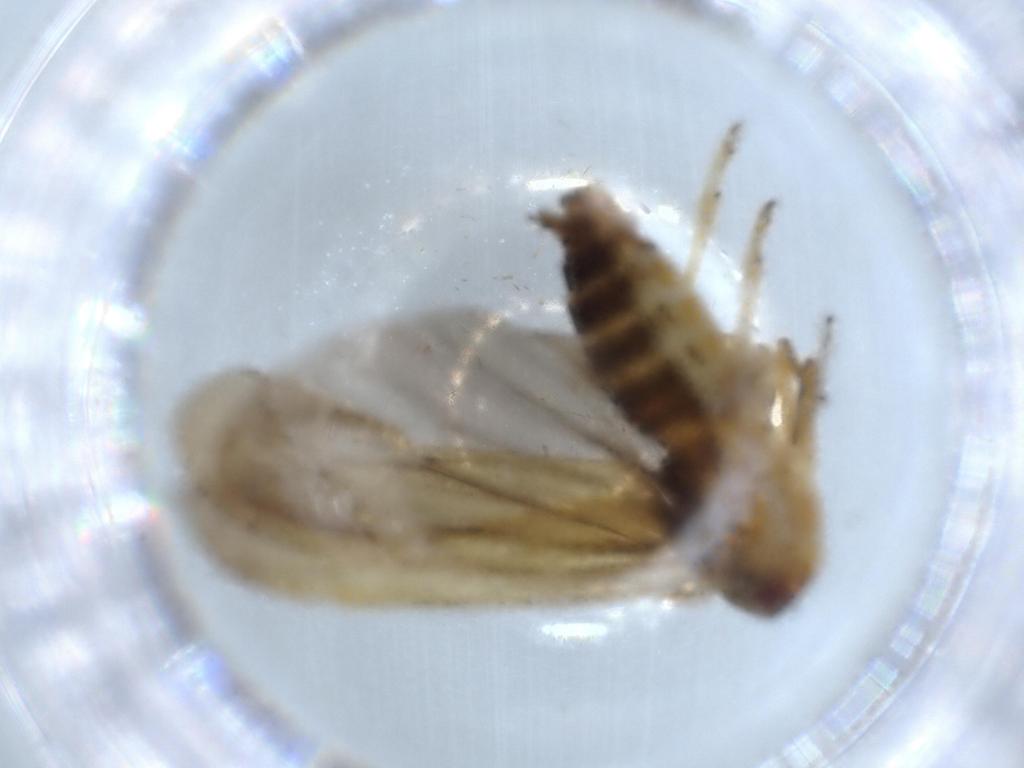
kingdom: Animalia
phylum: Arthropoda
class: Insecta
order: Hemiptera
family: Achilidae
